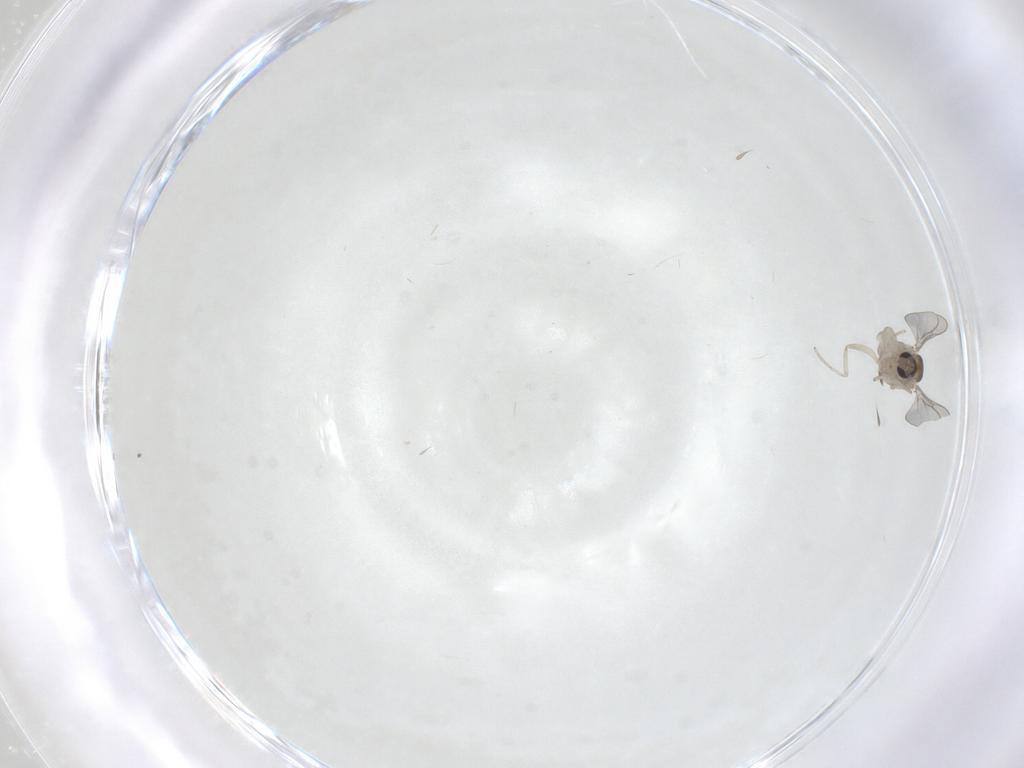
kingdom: Animalia
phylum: Arthropoda
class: Insecta
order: Diptera
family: Cecidomyiidae
